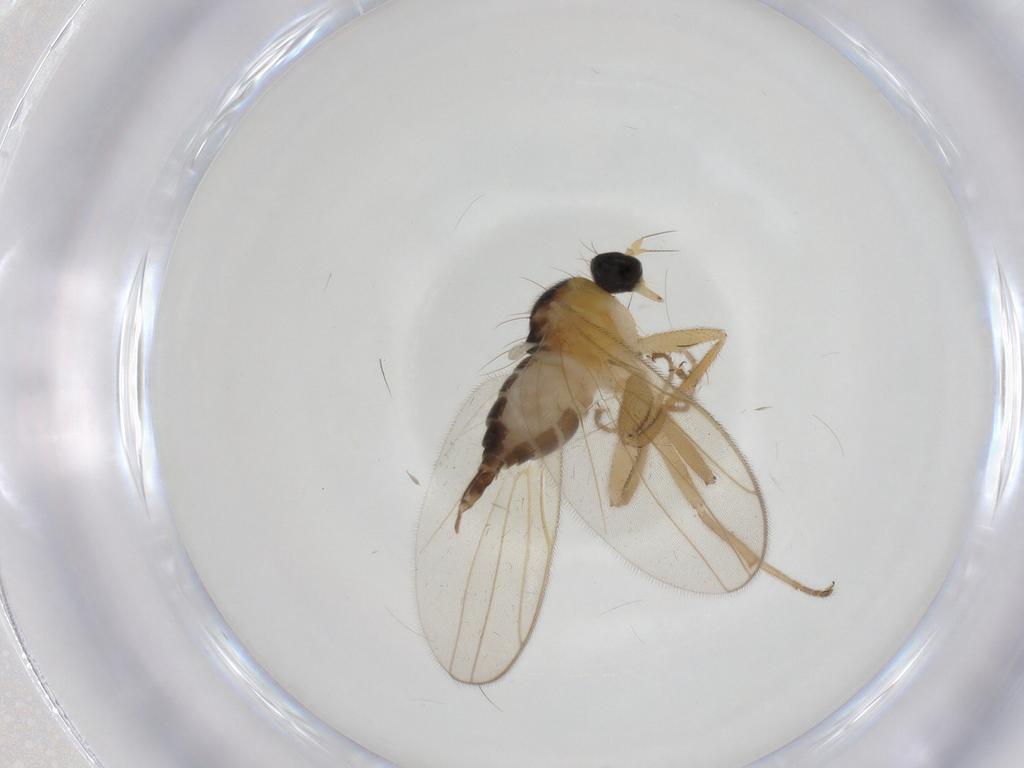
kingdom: Animalia
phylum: Arthropoda
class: Insecta
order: Diptera
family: Hybotidae
